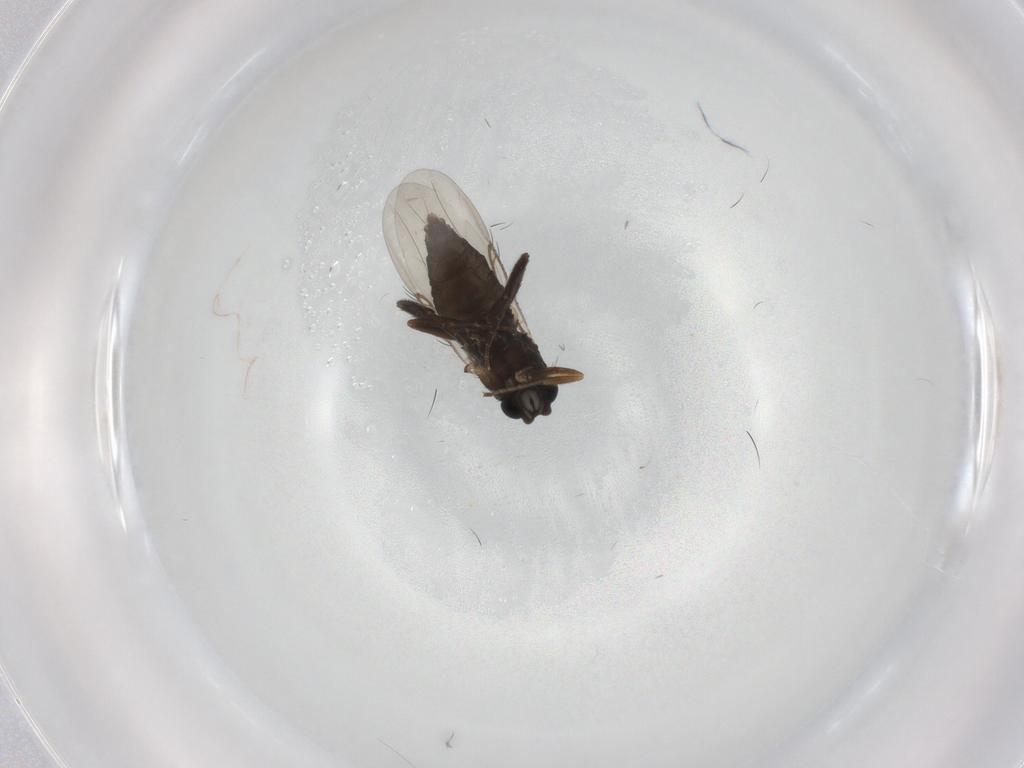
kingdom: Animalia
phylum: Arthropoda
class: Insecta
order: Diptera
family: Phoridae
